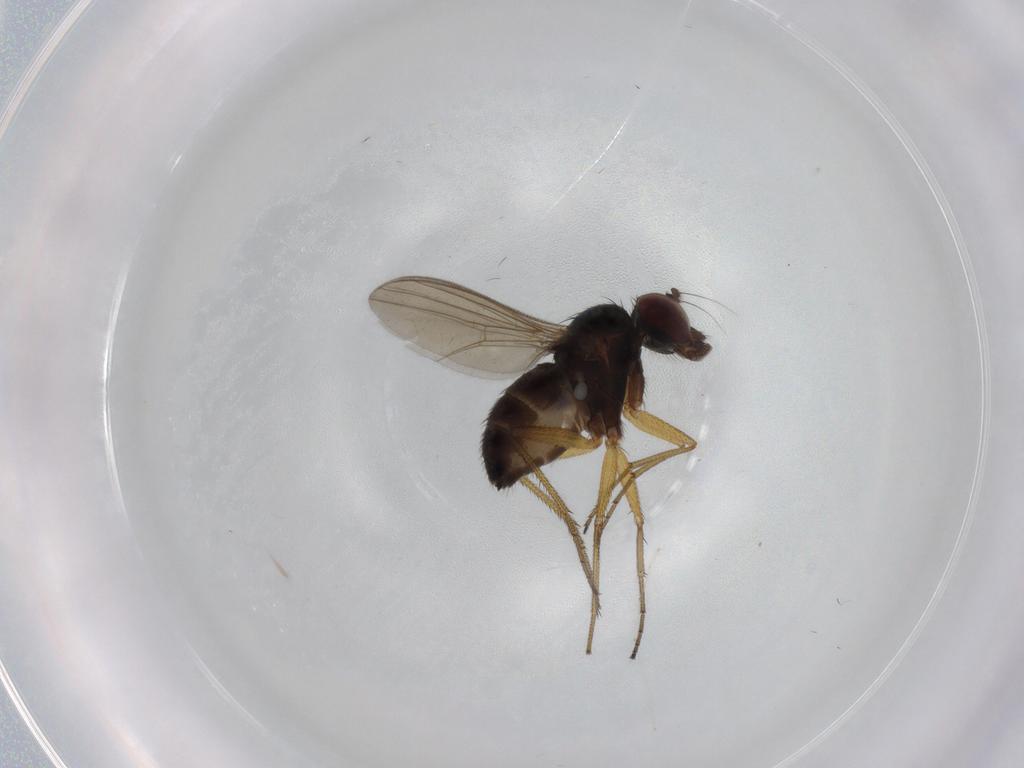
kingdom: Animalia
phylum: Arthropoda
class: Insecta
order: Diptera
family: Dolichopodidae
